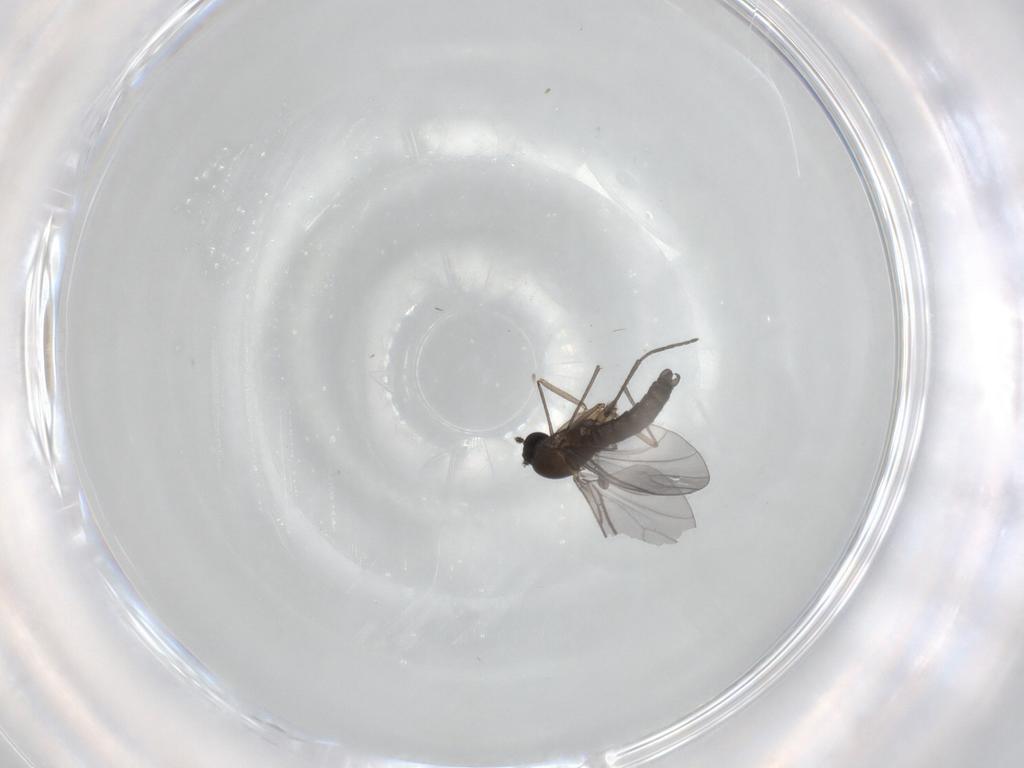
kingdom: Animalia
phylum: Arthropoda
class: Insecta
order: Diptera
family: Sciaridae
